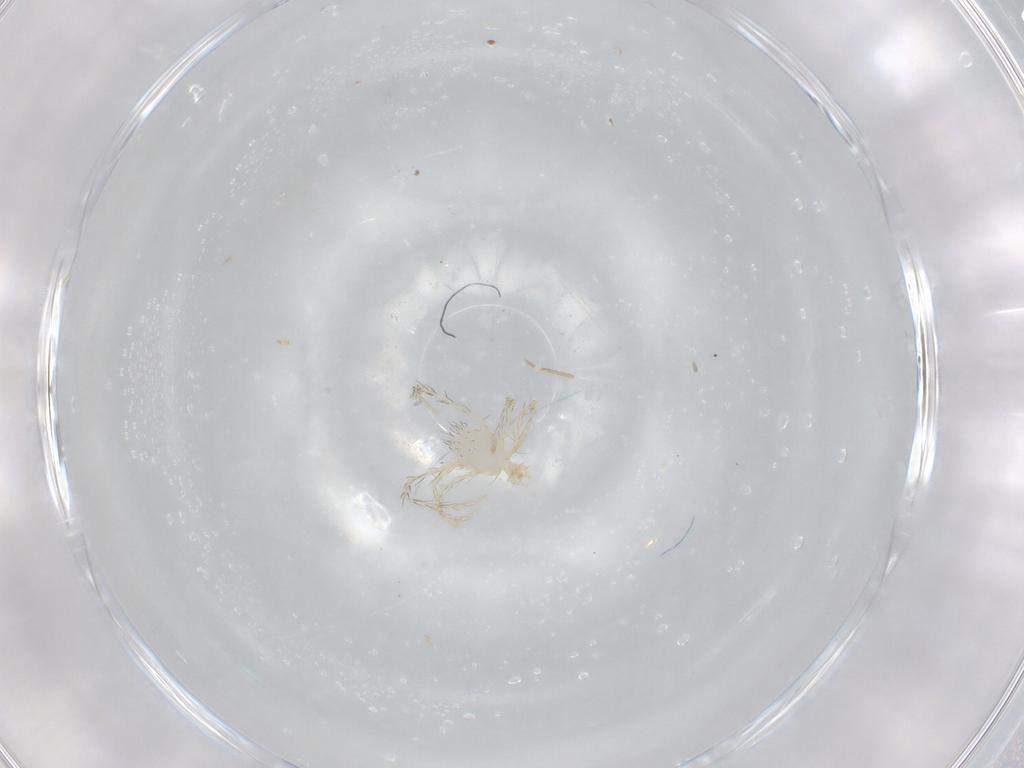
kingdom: Animalia
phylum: Arthropoda
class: Arachnida
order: Trombidiformes
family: Erythraeidae
